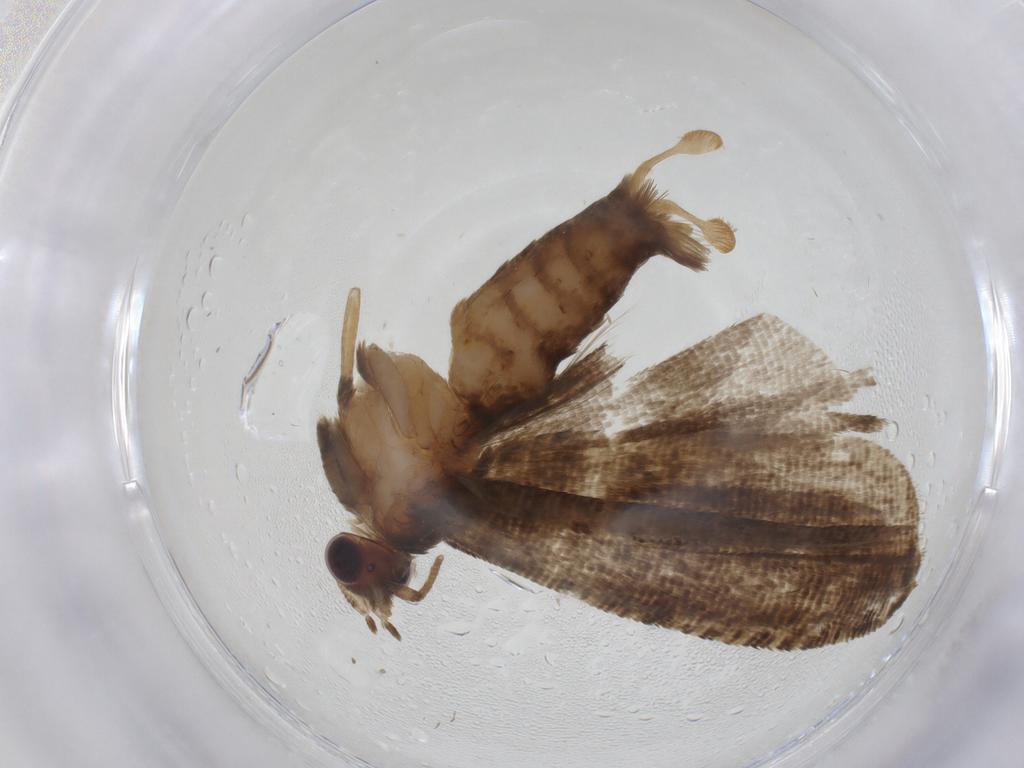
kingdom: Animalia
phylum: Arthropoda
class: Insecta
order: Lepidoptera
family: Tortricidae
